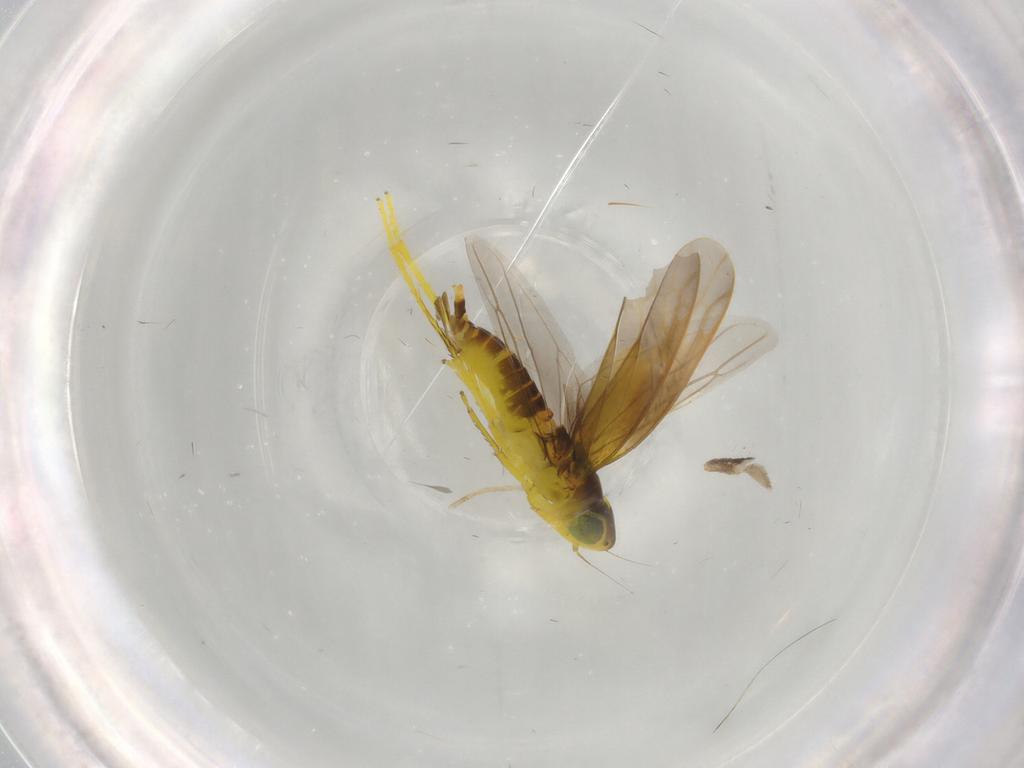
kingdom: Animalia
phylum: Arthropoda
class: Insecta
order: Hemiptera
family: Cicadellidae
